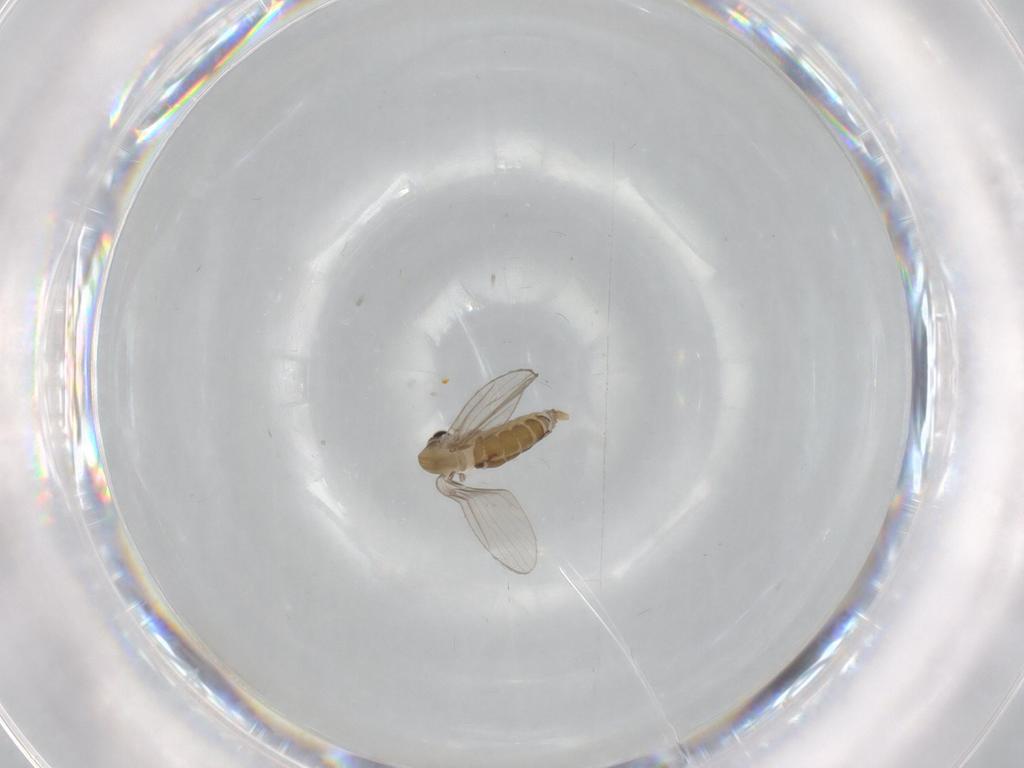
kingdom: Animalia
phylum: Arthropoda
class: Insecta
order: Diptera
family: Psychodidae
